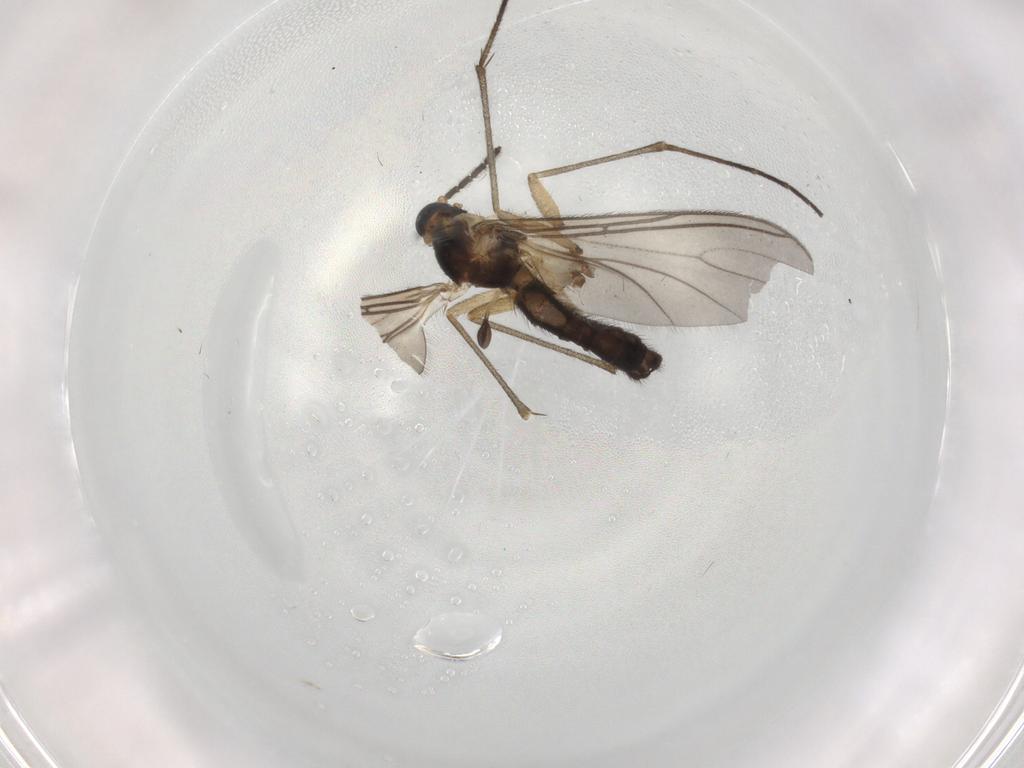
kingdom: Animalia
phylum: Arthropoda
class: Insecta
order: Diptera
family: Sciaridae
